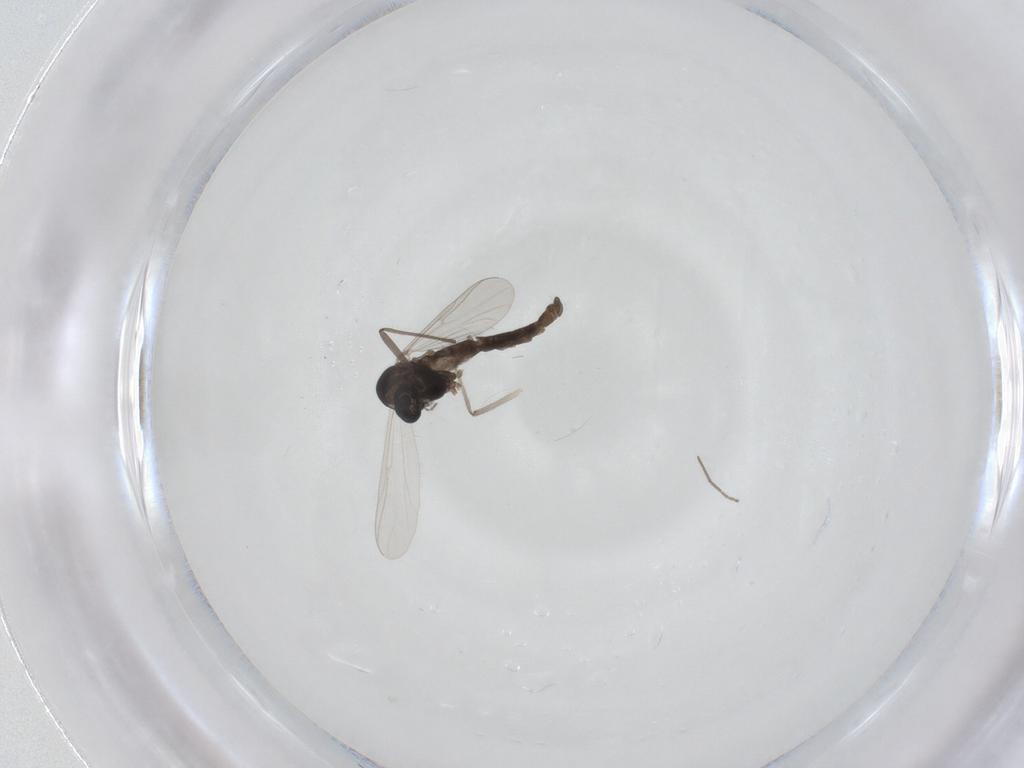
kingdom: Animalia
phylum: Arthropoda
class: Insecta
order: Diptera
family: Chironomidae
